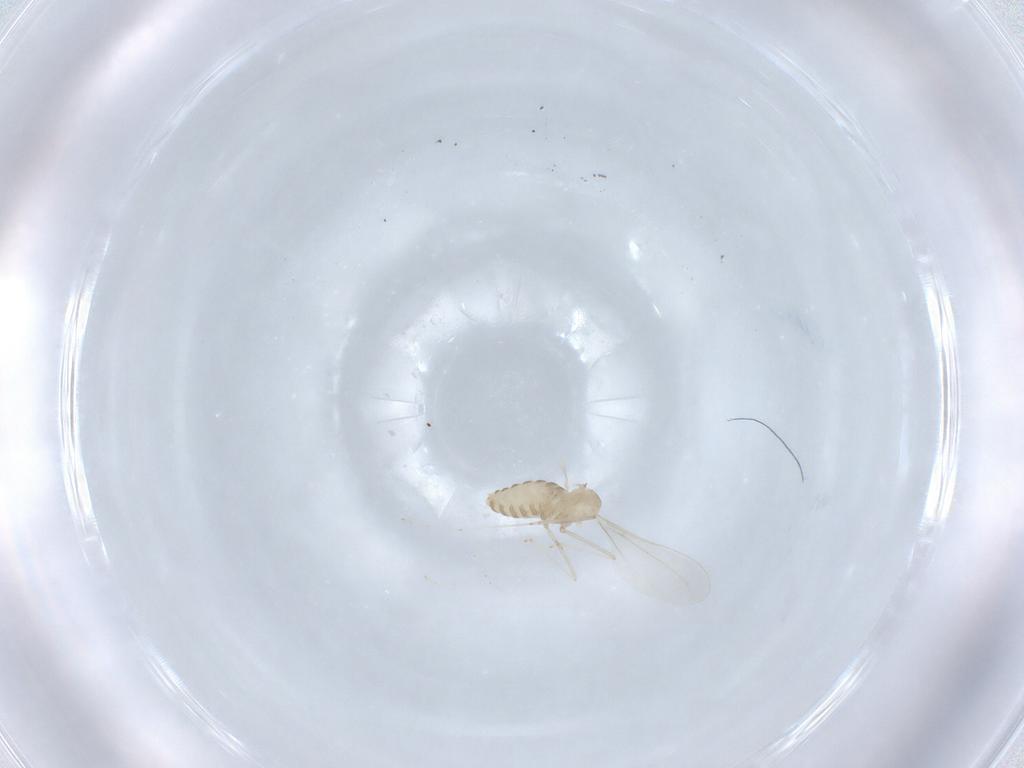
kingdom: Animalia
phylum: Arthropoda
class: Insecta
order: Diptera
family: Cecidomyiidae
